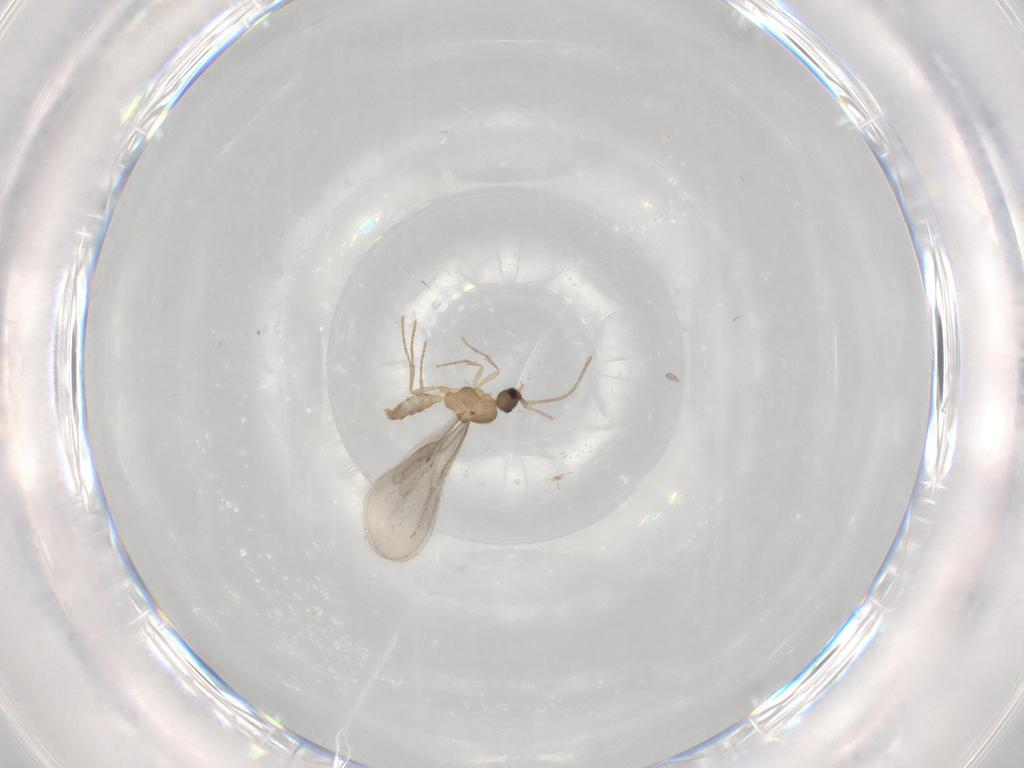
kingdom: Animalia
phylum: Arthropoda
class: Insecta
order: Hymenoptera
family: Formicidae
